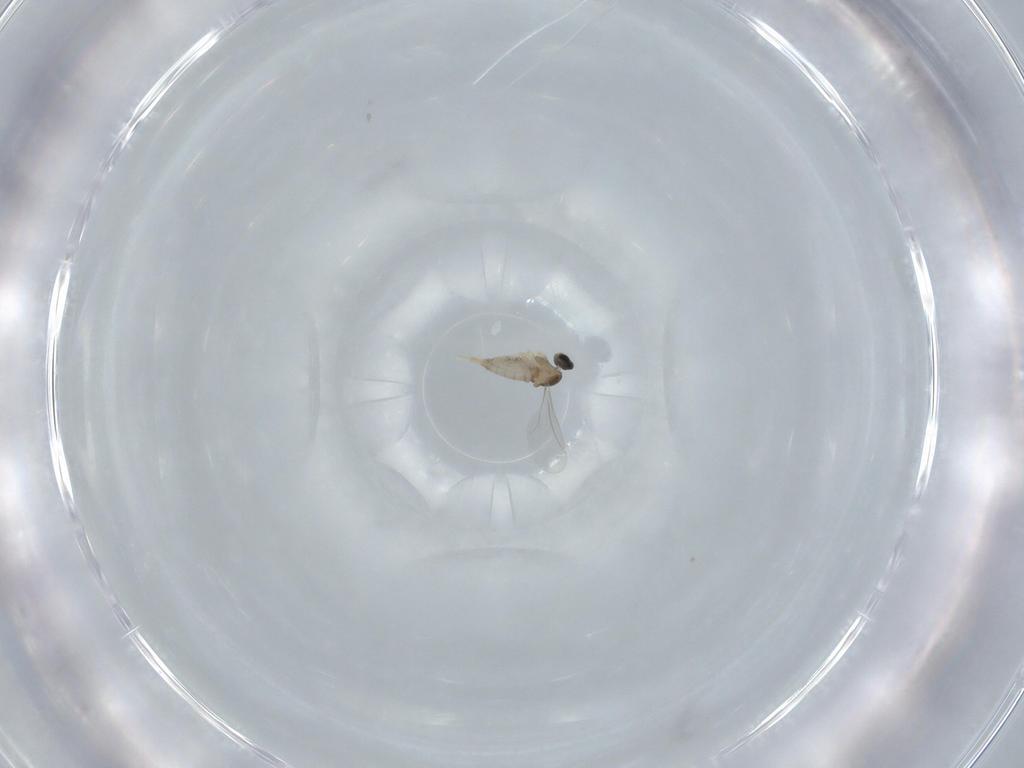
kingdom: Animalia
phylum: Arthropoda
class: Insecta
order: Diptera
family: Cecidomyiidae
